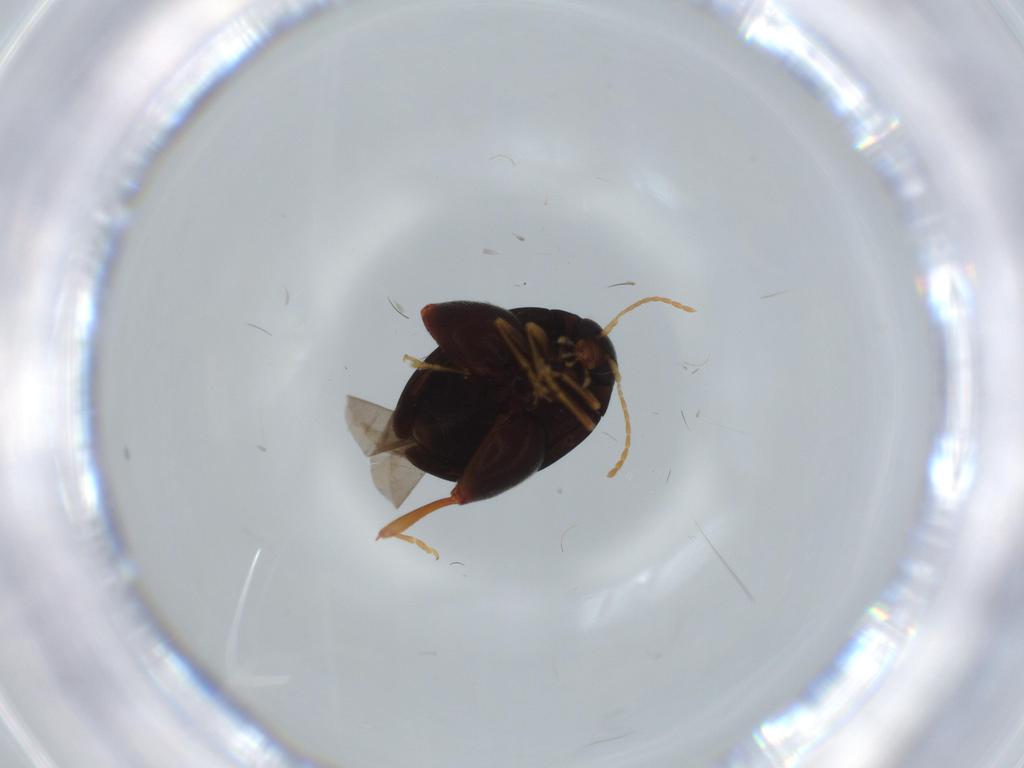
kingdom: Animalia
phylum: Arthropoda
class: Insecta
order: Coleoptera
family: Chrysomelidae
